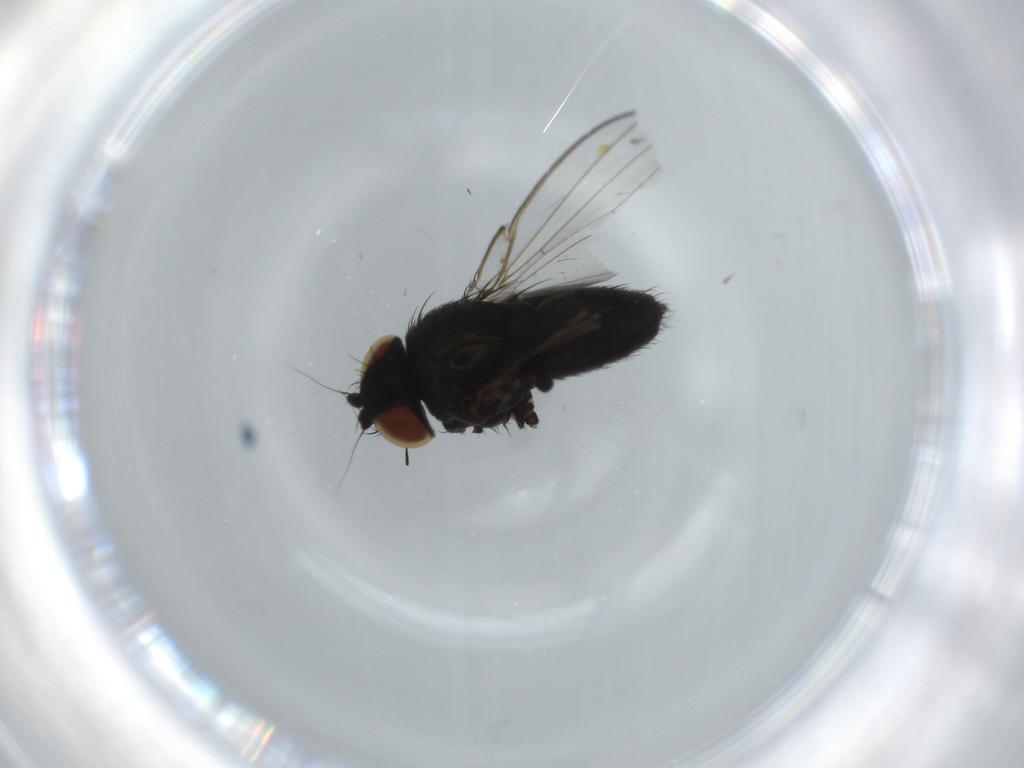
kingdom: Animalia
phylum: Arthropoda
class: Insecta
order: Diptera
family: Milichiidae
